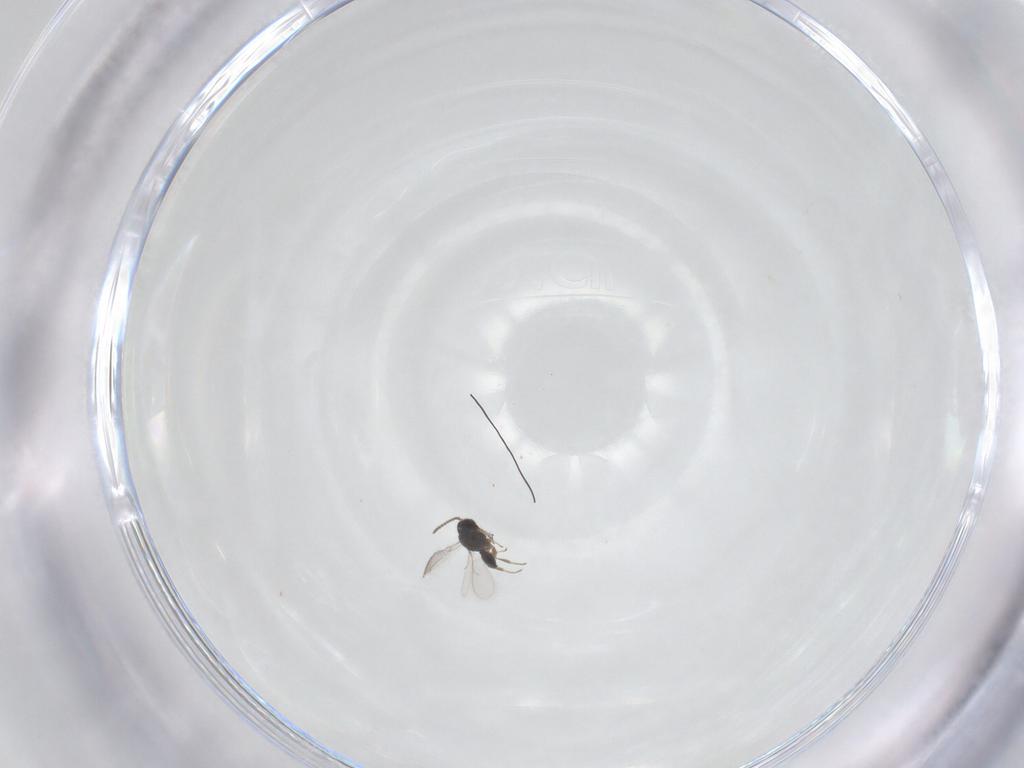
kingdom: Animalia
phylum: Arthropoda
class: Insecta
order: Hymenoptera
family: Scelionidae
